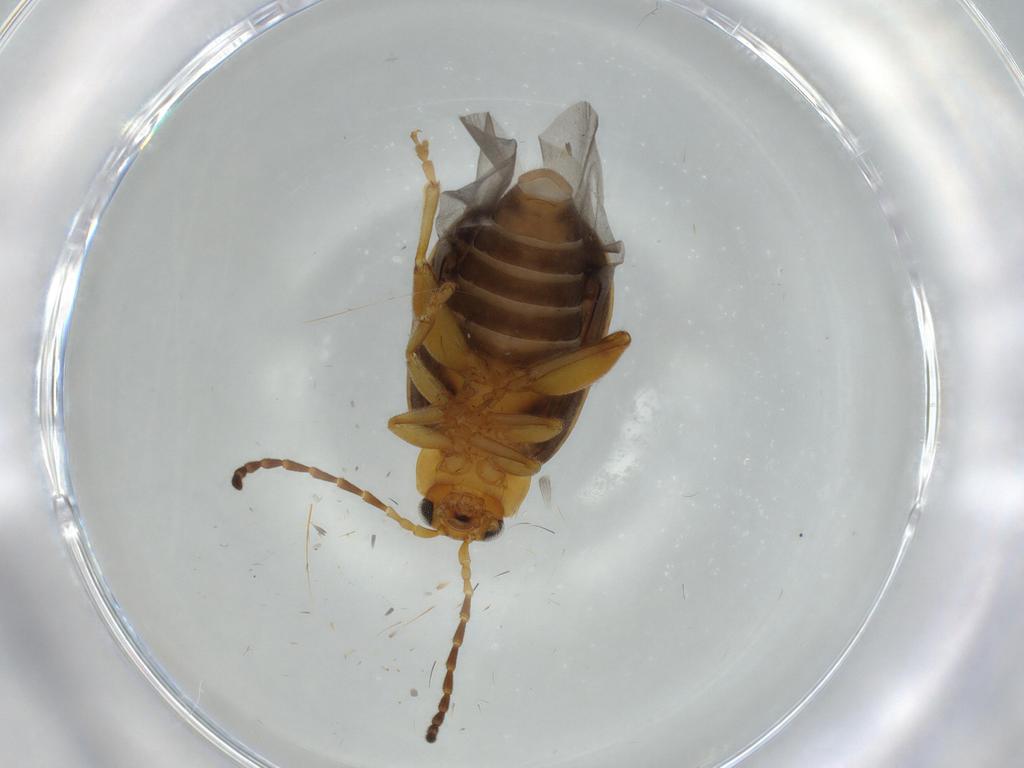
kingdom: Animalia
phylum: Arthropoda
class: Insecta
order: Coleoptera
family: Chrysomelidae
